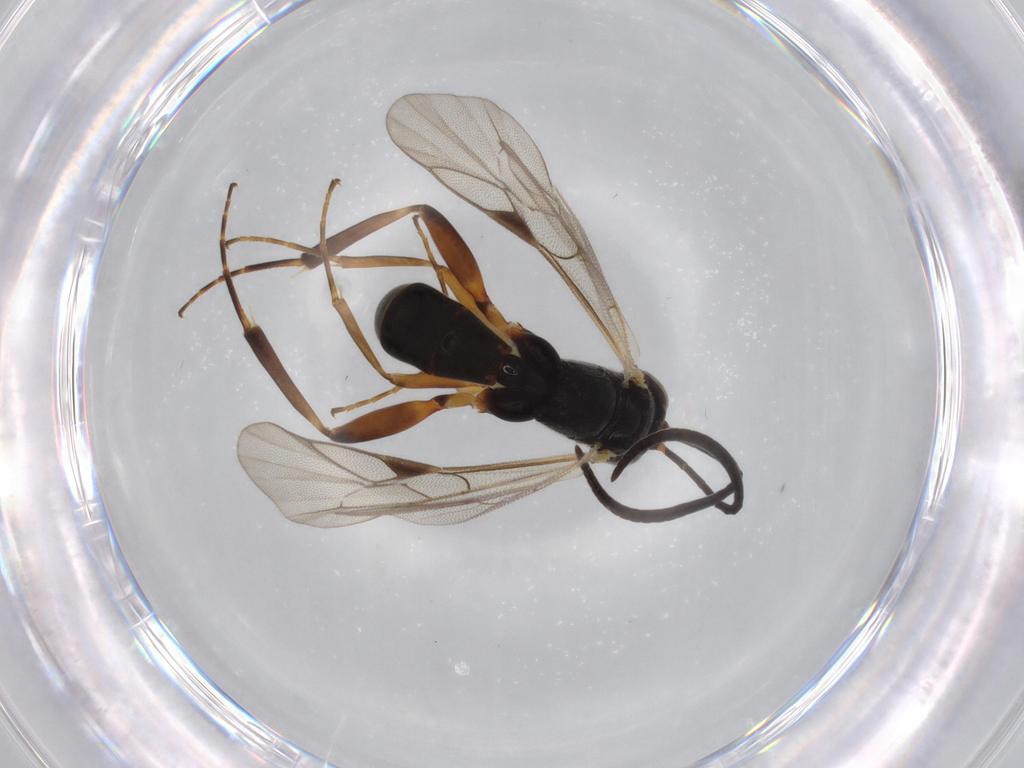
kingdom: Animalia
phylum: Arthropoda
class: Insecta
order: Hymenoptera
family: Scelionidae
